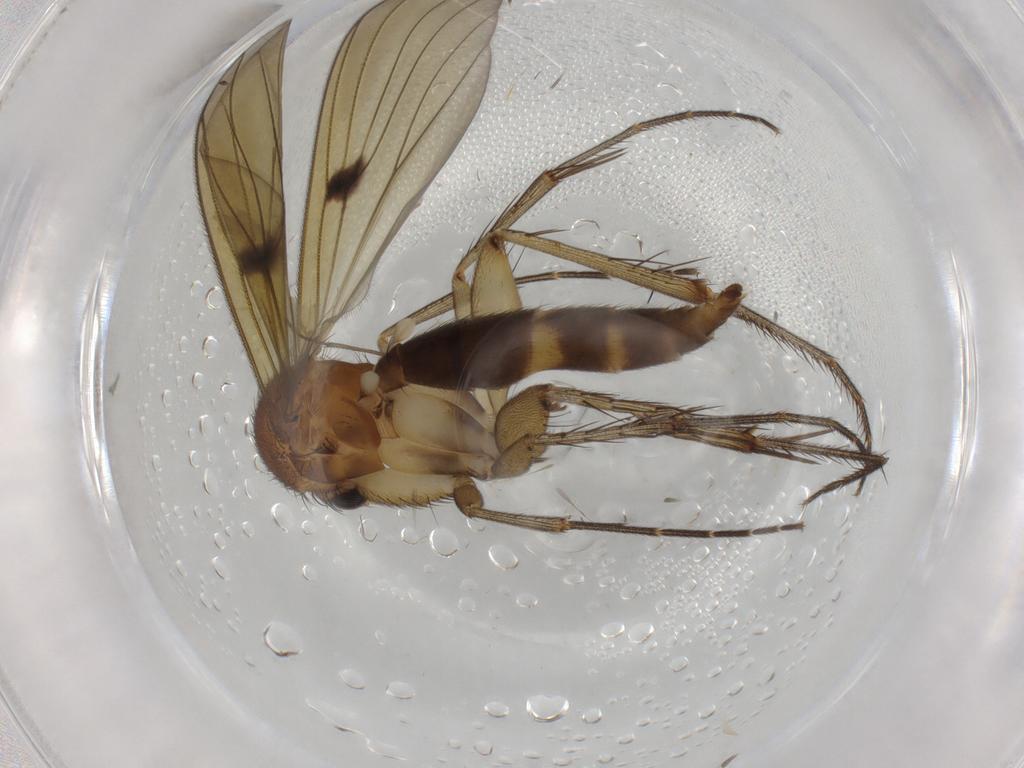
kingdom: Animalia
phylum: Arthropoda
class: Insecta
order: Diptera
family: Mycetophilidae
